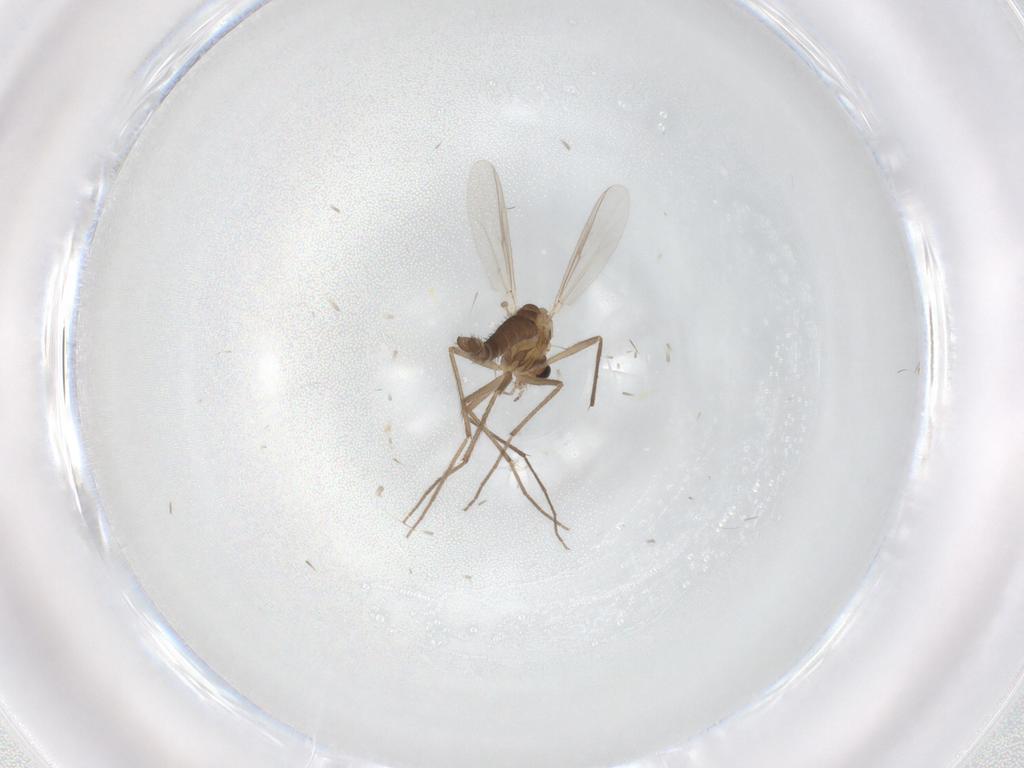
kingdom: Animalia
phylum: Arthropoda
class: Insecta
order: Diptera
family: Chironomidae
